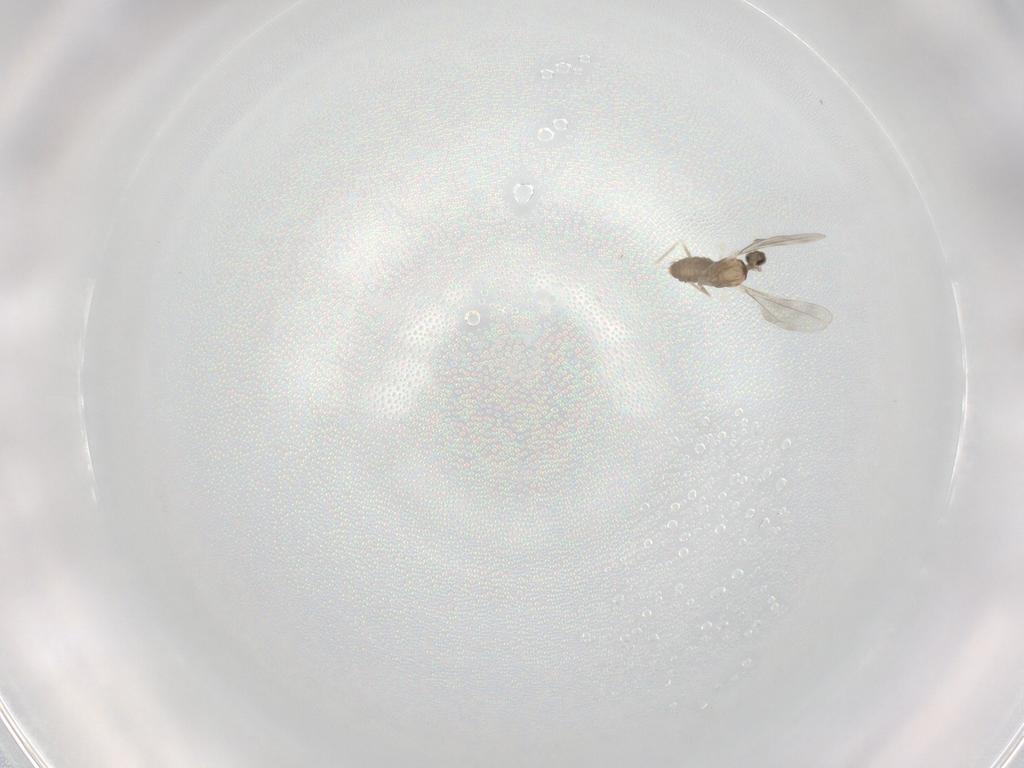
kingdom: Animalia
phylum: Arthropoda
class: Insecta
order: Diptera
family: Cecidomyiidae
